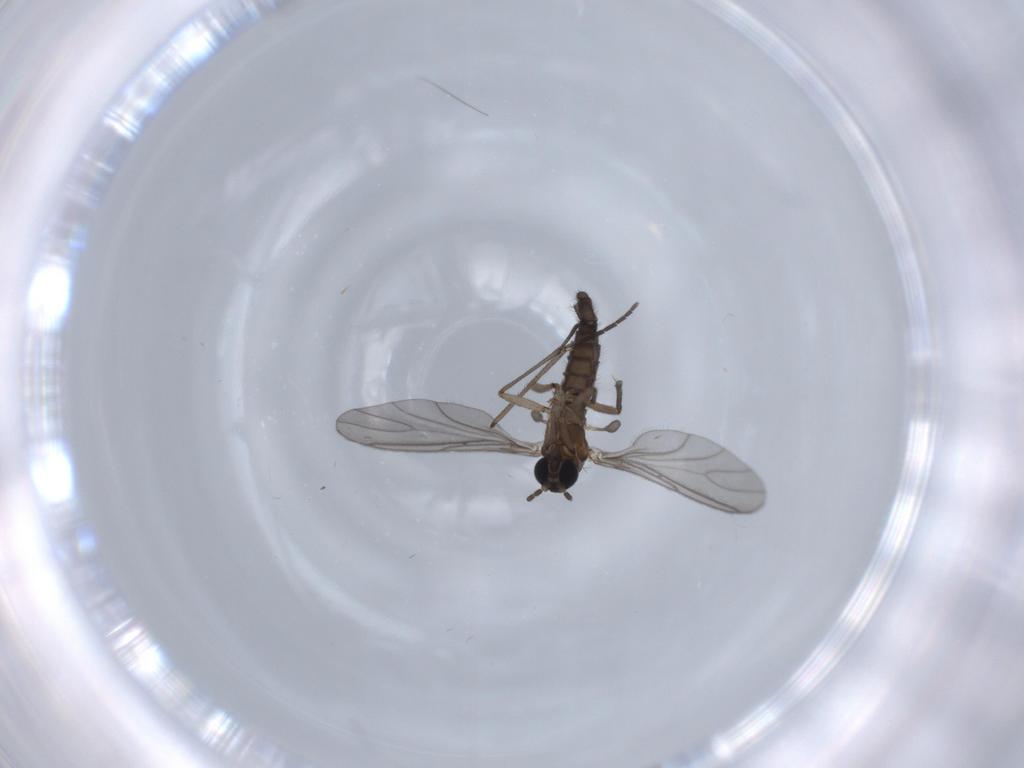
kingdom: Animalia
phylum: Arthropoda
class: Insecta
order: Diptera
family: Sciaridae
